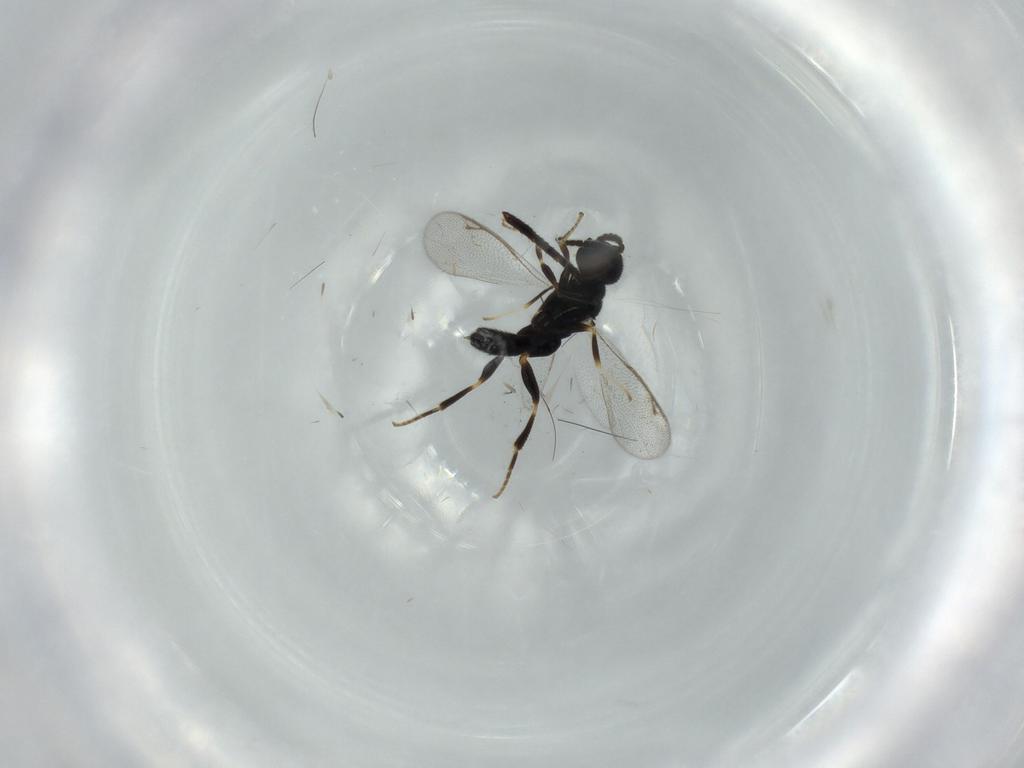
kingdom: Animalia
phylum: Arthropoda
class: Insecta
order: Hymenoptera
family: Cleonyminae
